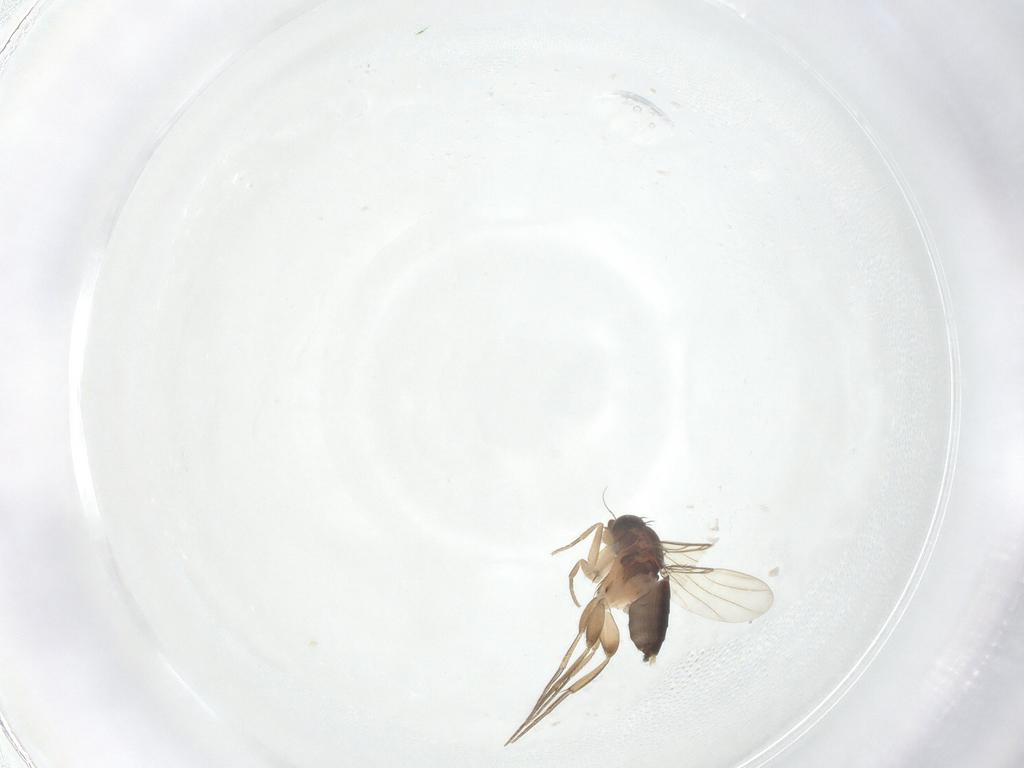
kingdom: Animalia
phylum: Arthropoda
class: Insecta
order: Diptera
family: Phoridae
